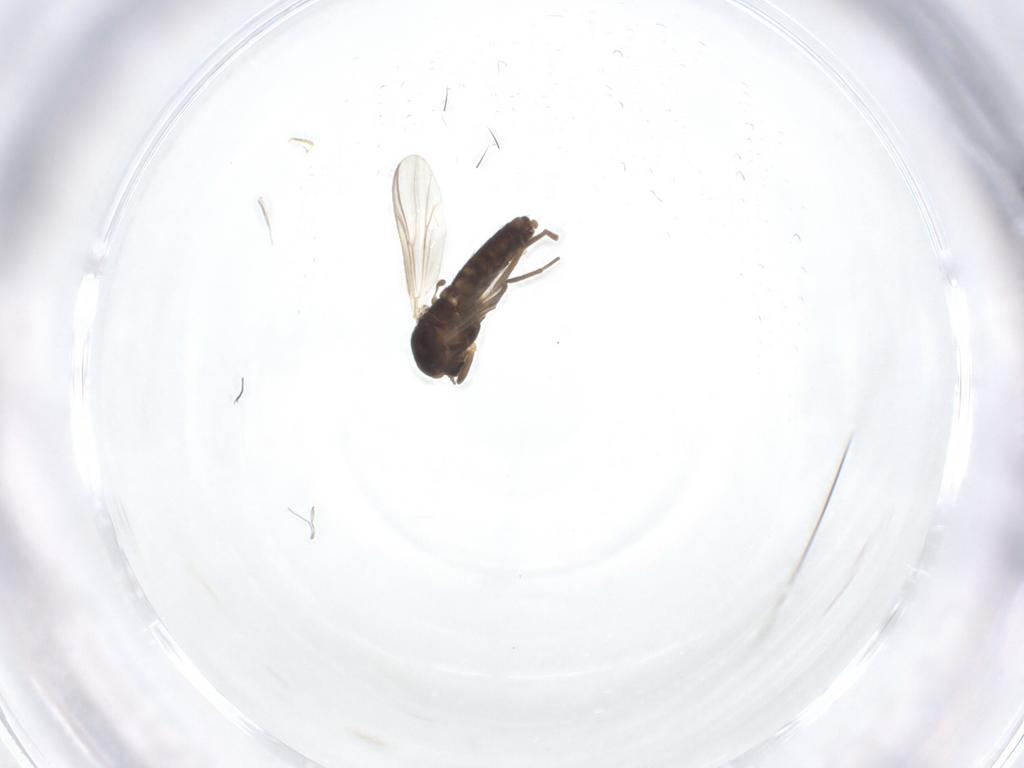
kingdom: Animalia
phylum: Arthropoda
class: Insecta
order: Diptera
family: Chironomidae
